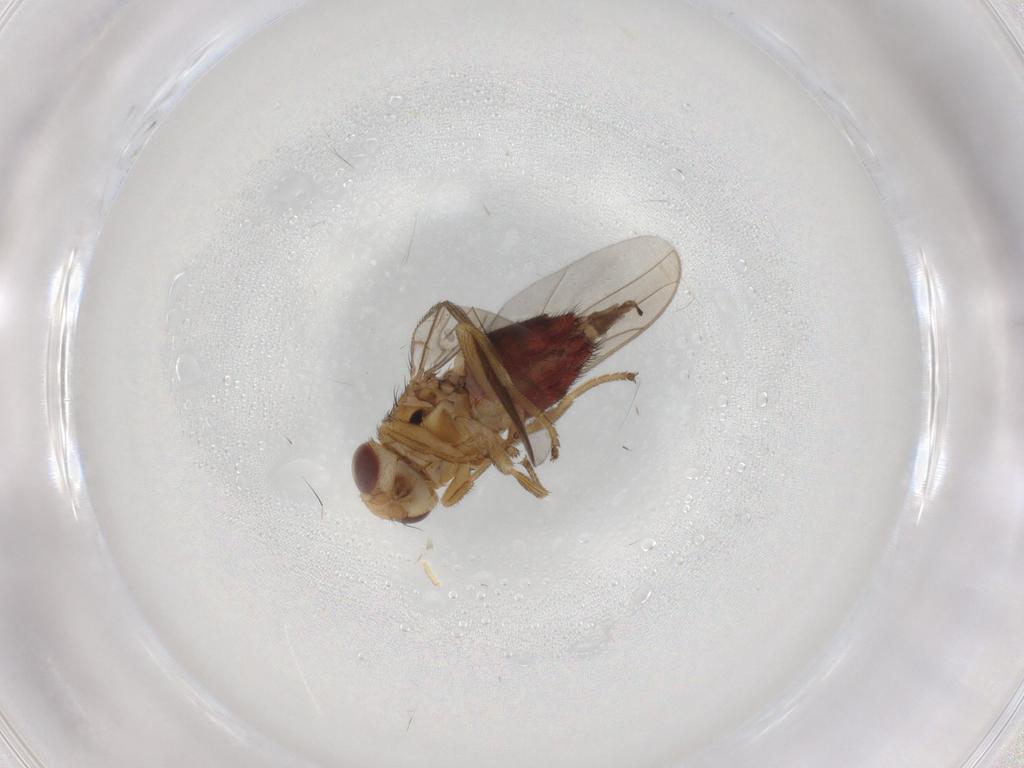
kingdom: Animalia
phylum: Arthropoda
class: Insecta
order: Diptera
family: Chloropidae
